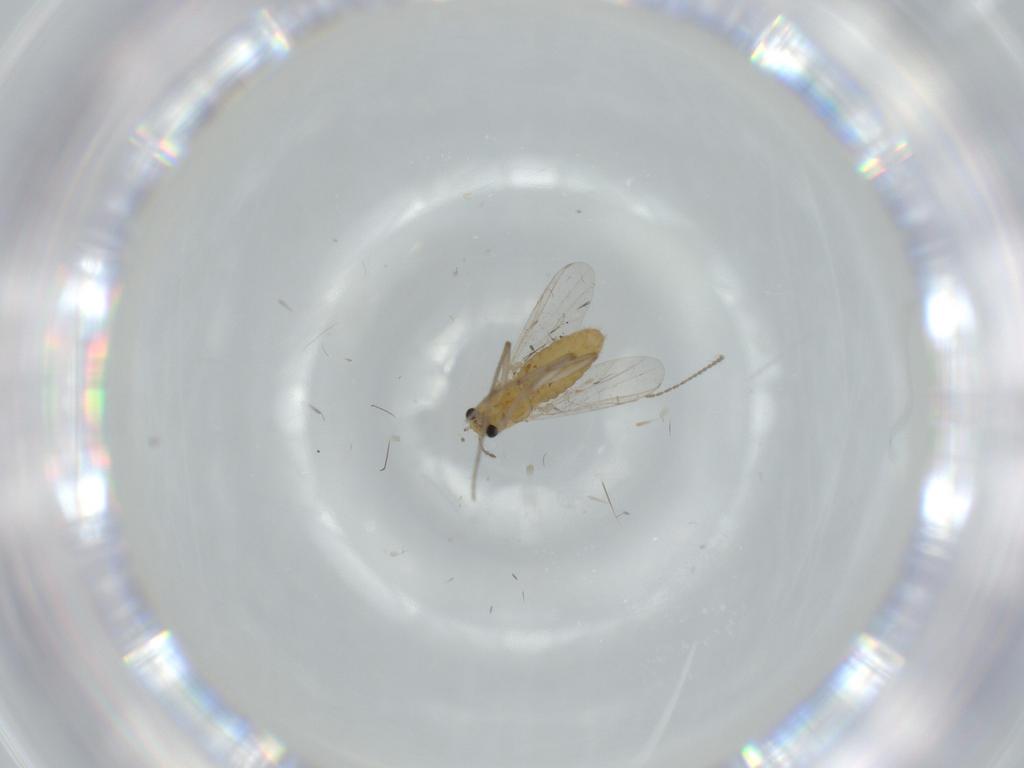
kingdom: Animalia
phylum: Arthropoda
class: Insecta
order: Diptera
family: Chironomidae
